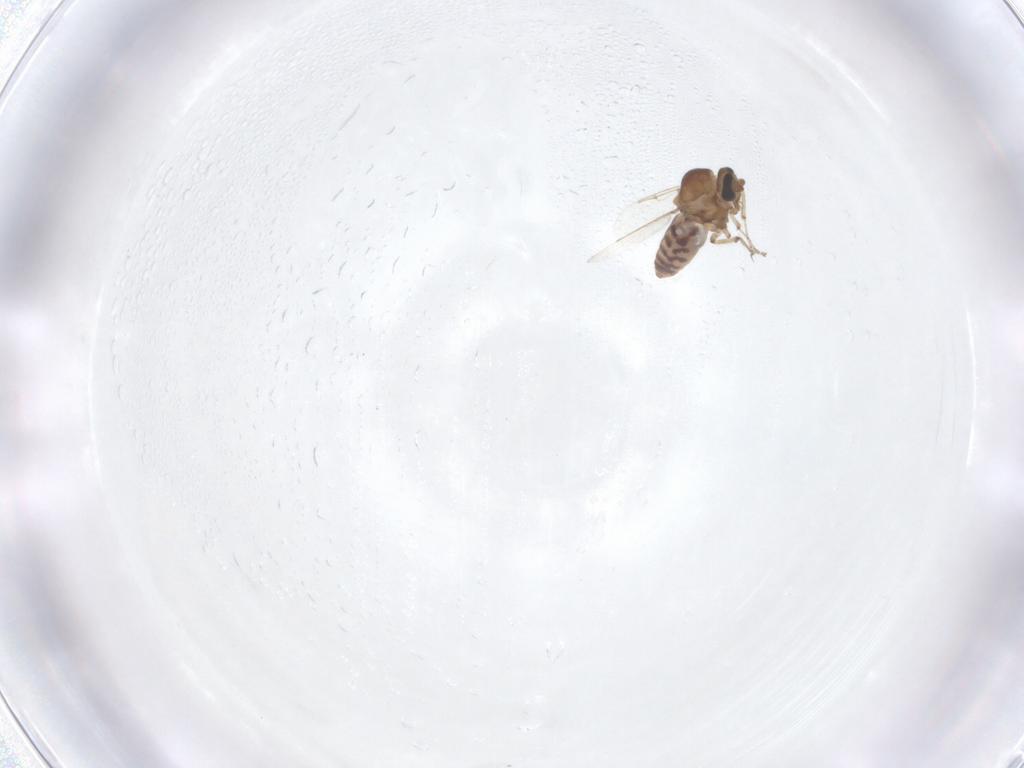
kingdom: Animalia
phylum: Arthropoda
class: Insecta
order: Diptera
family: Ceratopogonidae
